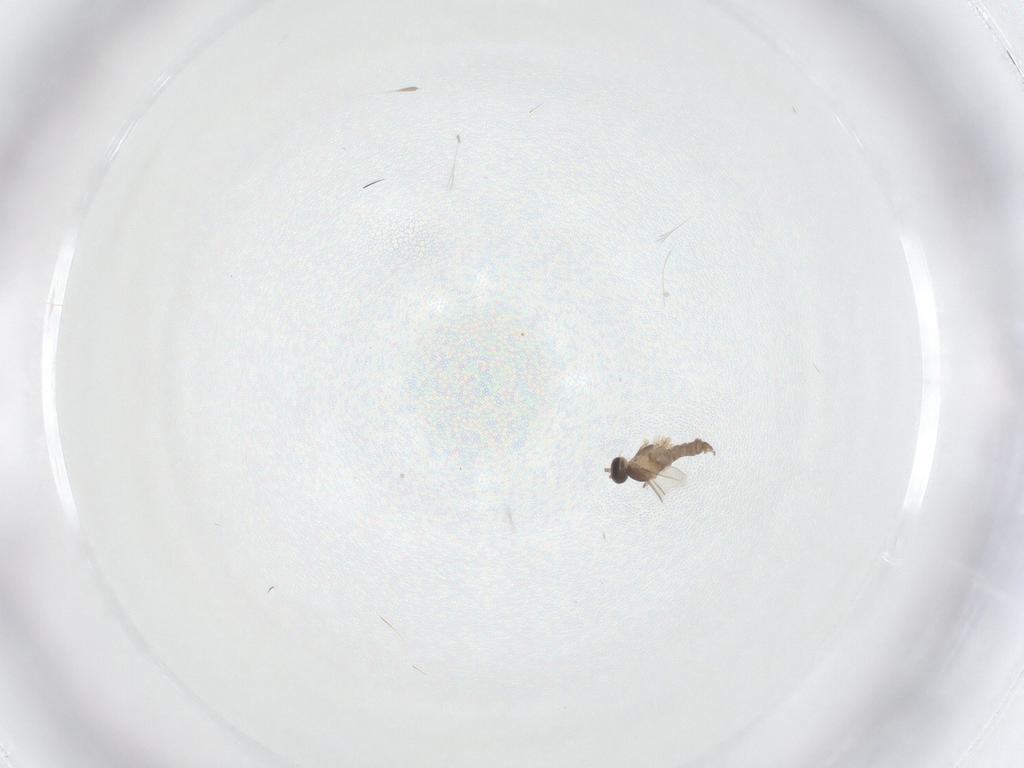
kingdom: Animalia
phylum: Arthropoda
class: Insecta
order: Diptera
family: Cecidomyiidae
